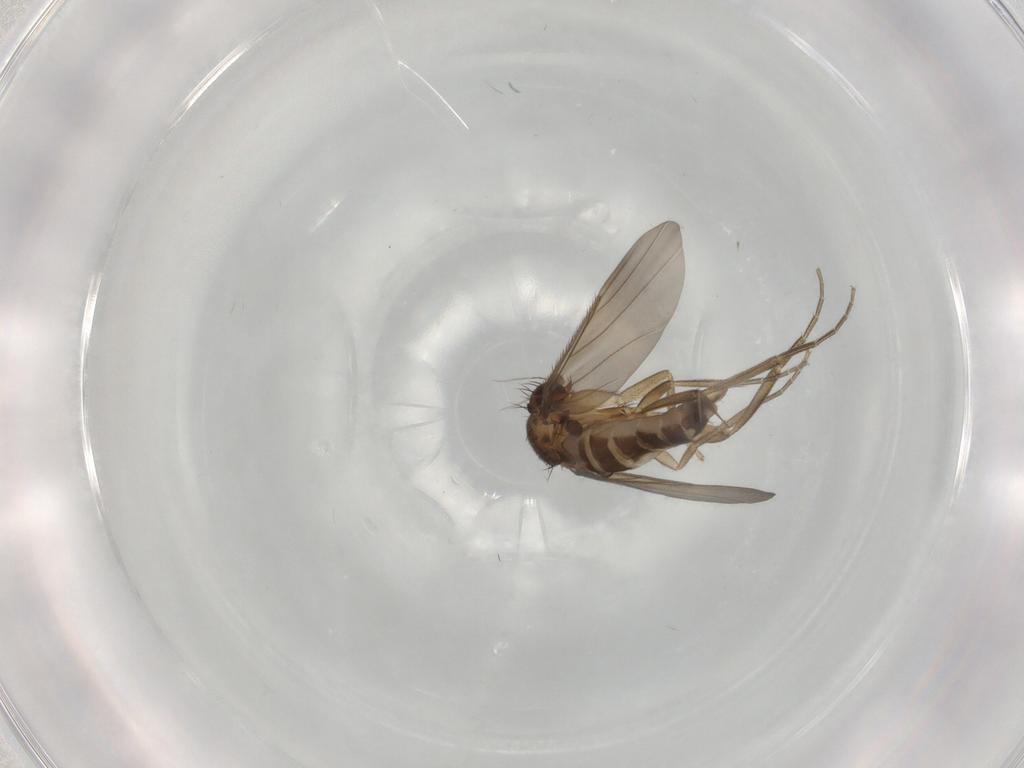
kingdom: Animalia
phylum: Arthropoda
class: Insecta
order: Diptera
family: Phoridae
